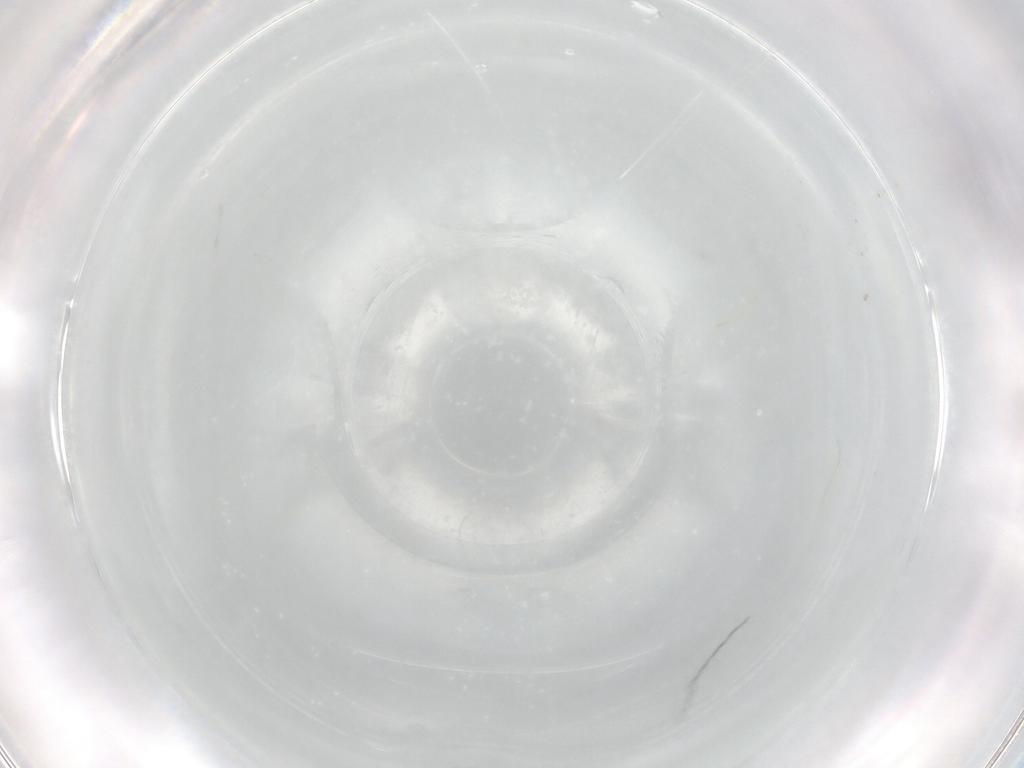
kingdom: Animalia
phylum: Arthropoda
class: Arachnida
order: Trombidiformes
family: Tetranychidae
